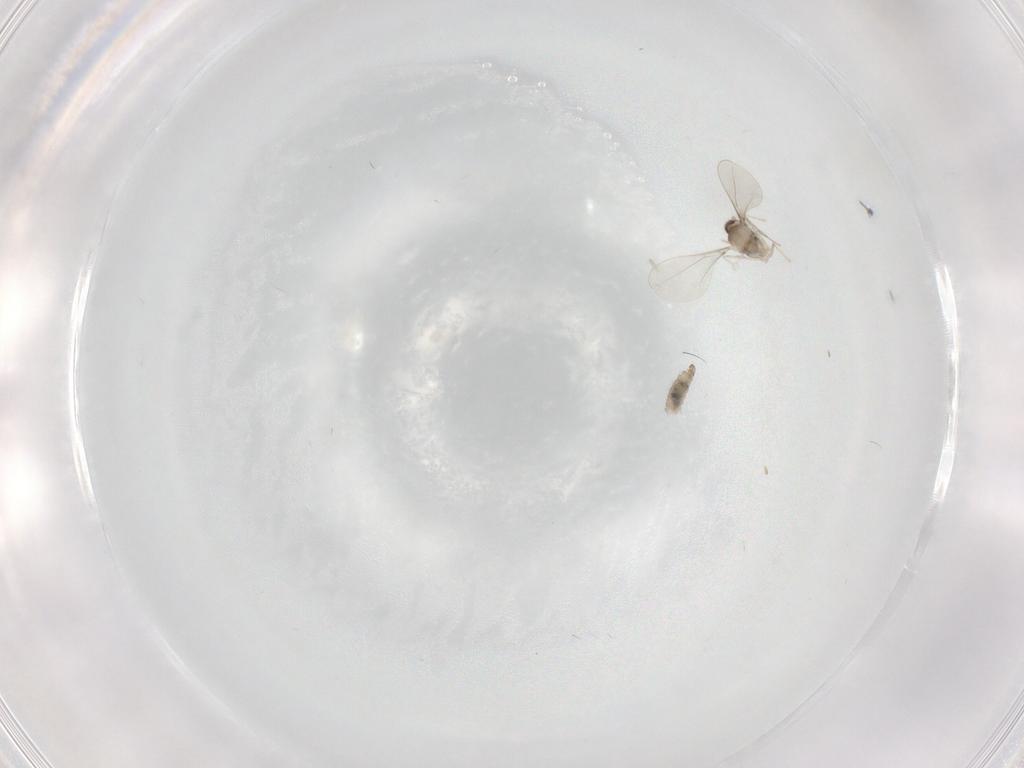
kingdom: Animalia
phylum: Arthropoda
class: Insecta
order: Diptera
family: Cecidomyiidae
